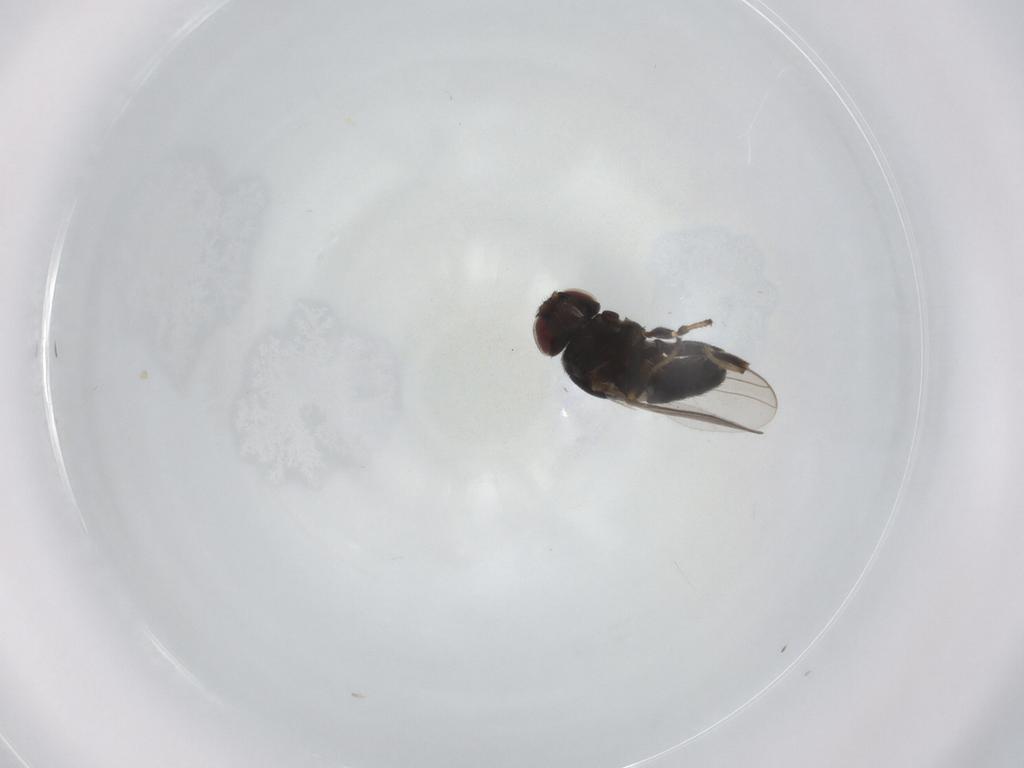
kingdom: Animalia
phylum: Arthropoda
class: Insecta
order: Diptera
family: Chloropidae
